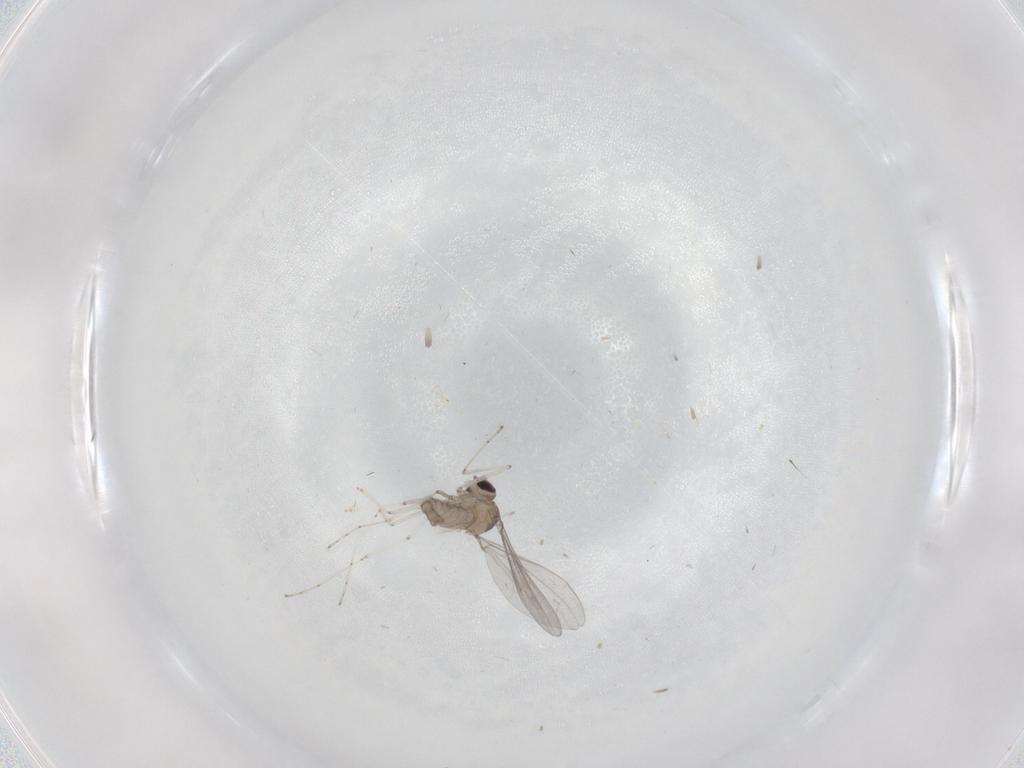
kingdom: Animalia
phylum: Arthropoda
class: Insecta
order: Diptera
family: Cecidomyiidae
